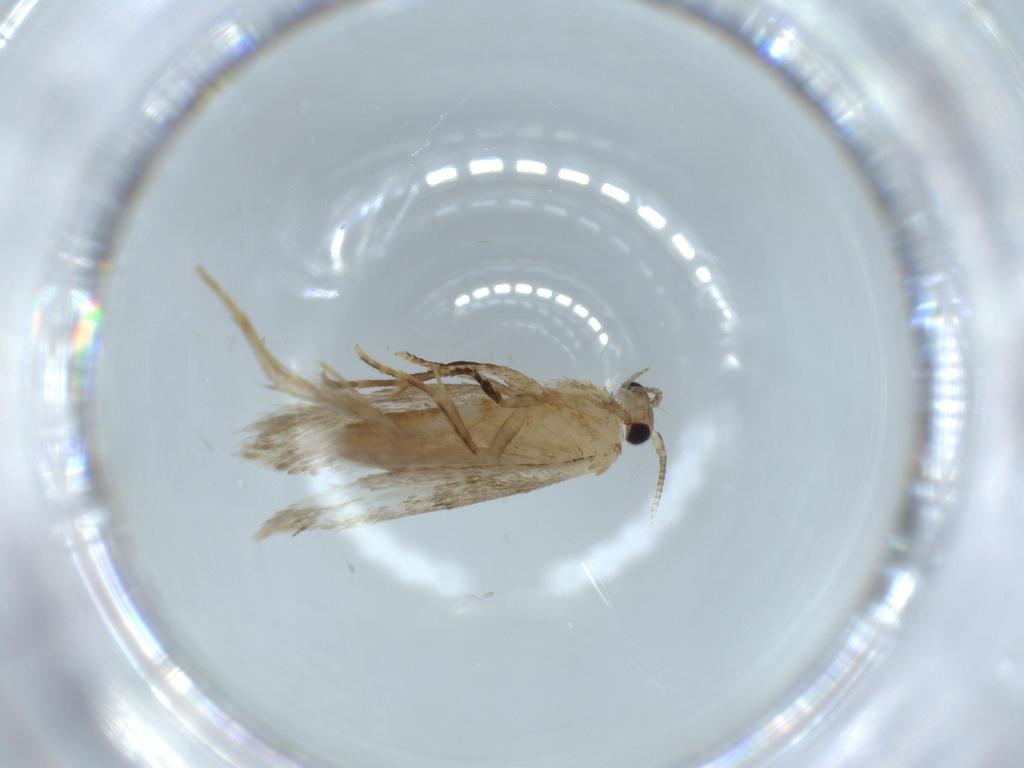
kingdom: Animalia
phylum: Arthropoda
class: Insecta
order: Lepidoptera
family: Tineidae
